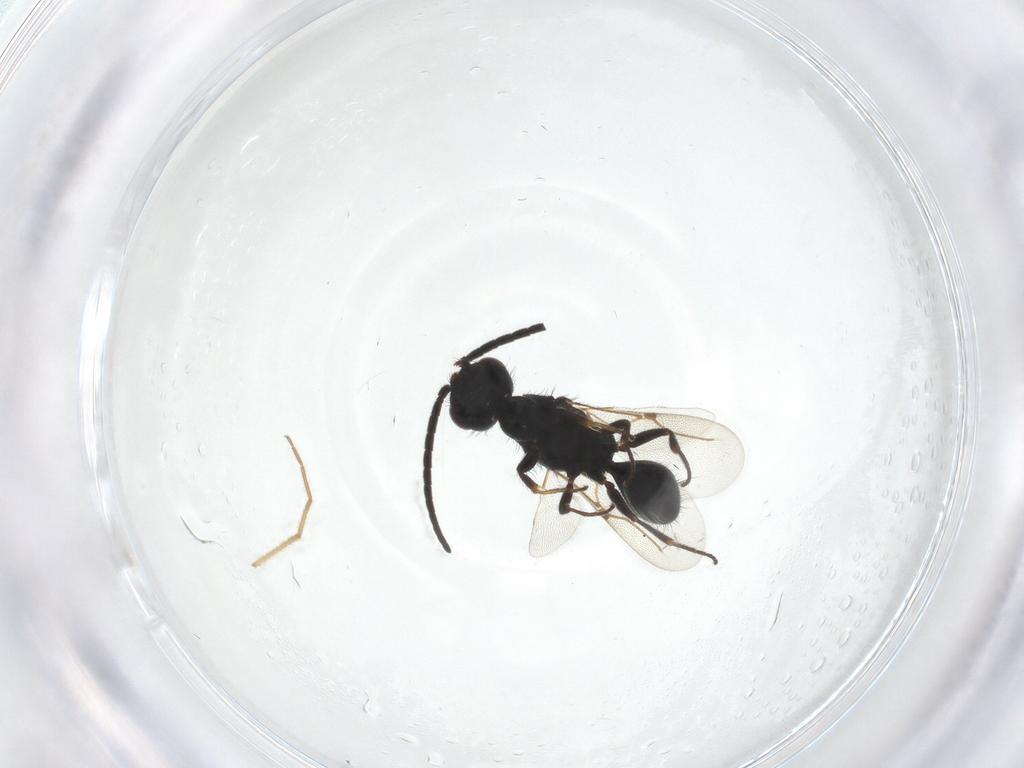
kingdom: Animalia
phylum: Arthropoda
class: Insecta
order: Hymenoptera
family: Bethylidae
